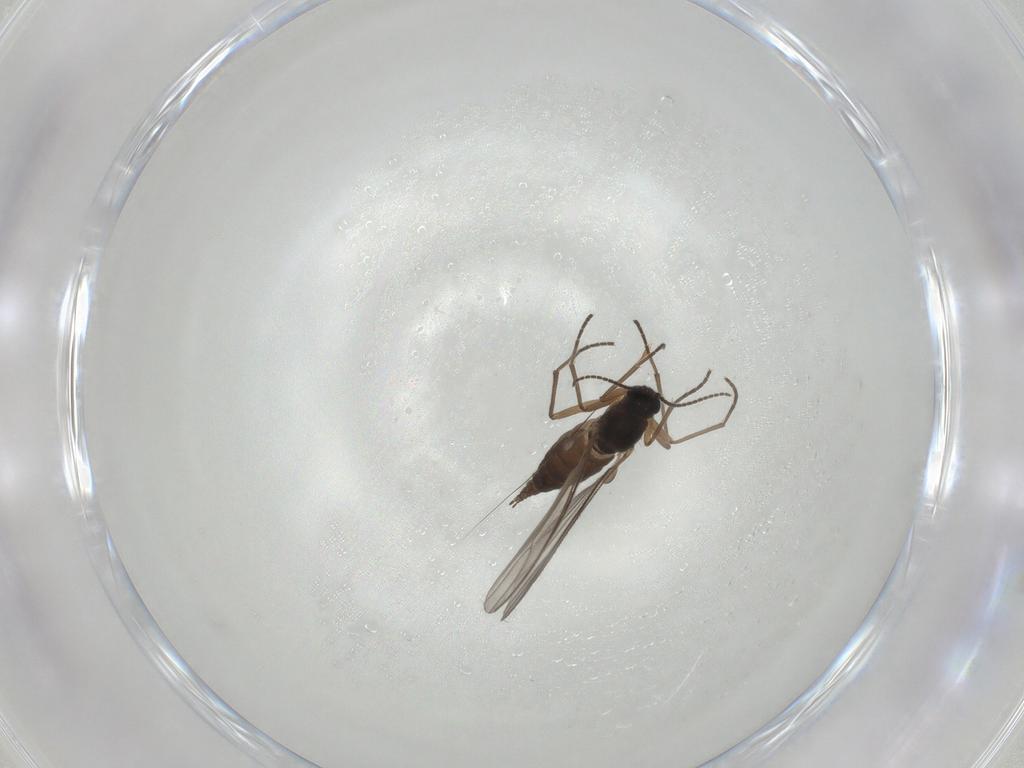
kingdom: Animalia
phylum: Arthropoda
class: Insecta
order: Diptera
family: Sciaridae
